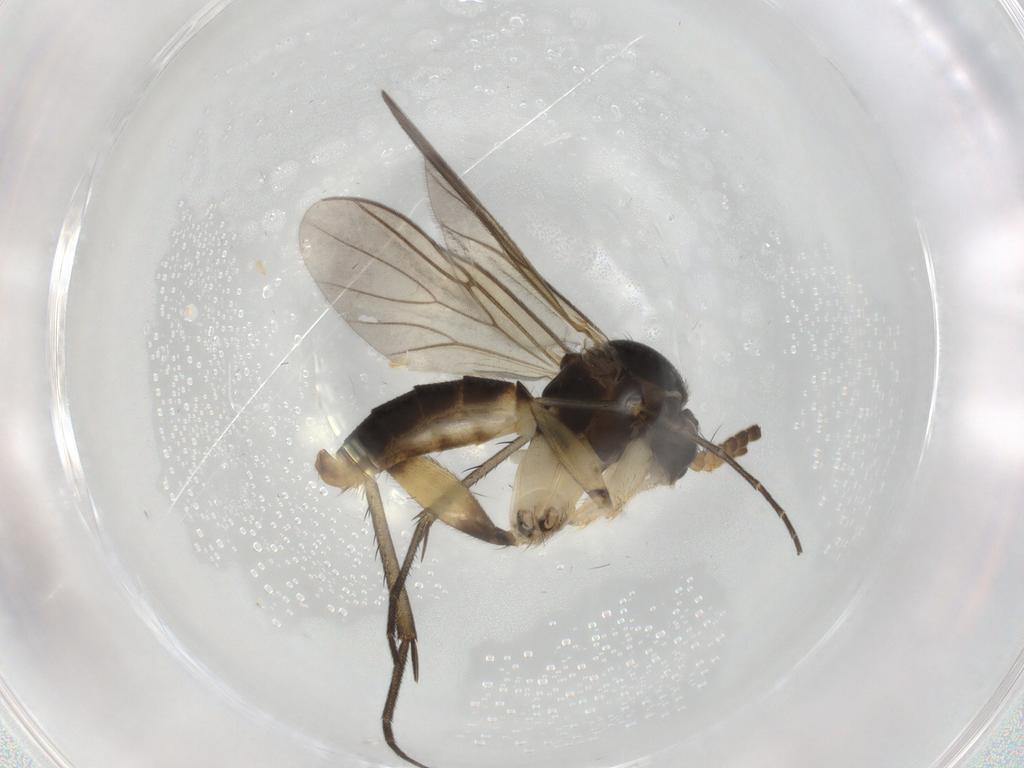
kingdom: Animalia
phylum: Arthropoda
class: Insecta
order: Diptera
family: Mycetophilidae
